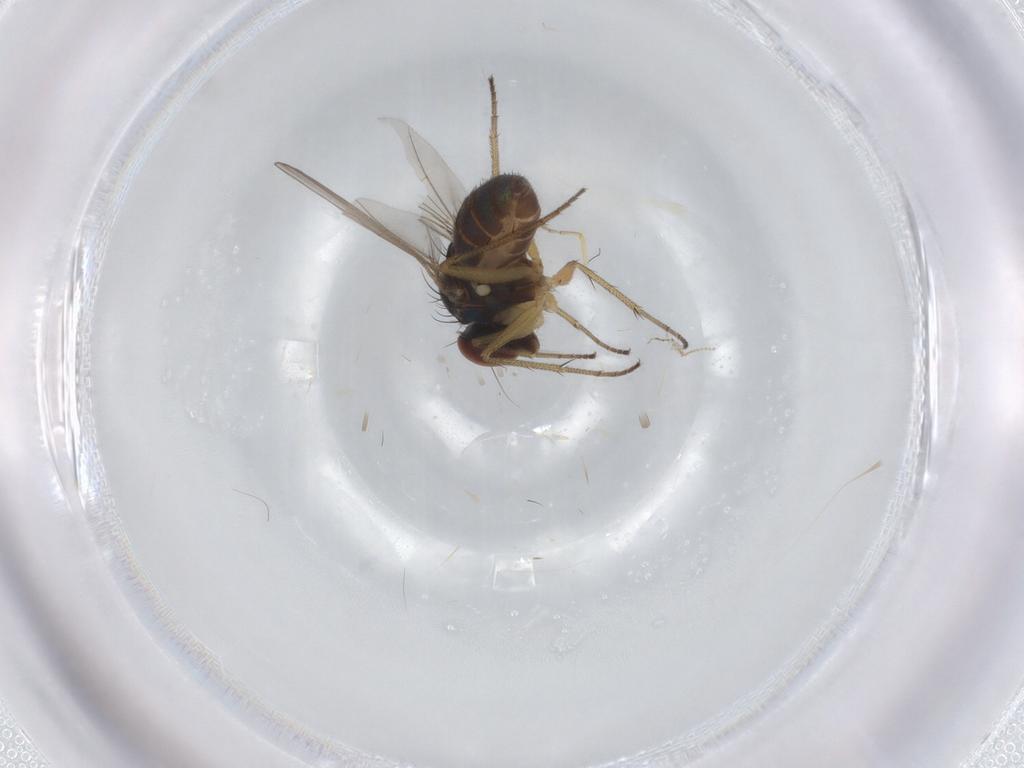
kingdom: Animalia
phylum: Arthropoda
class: Insecta
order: Diptera
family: Dolichopodidae
